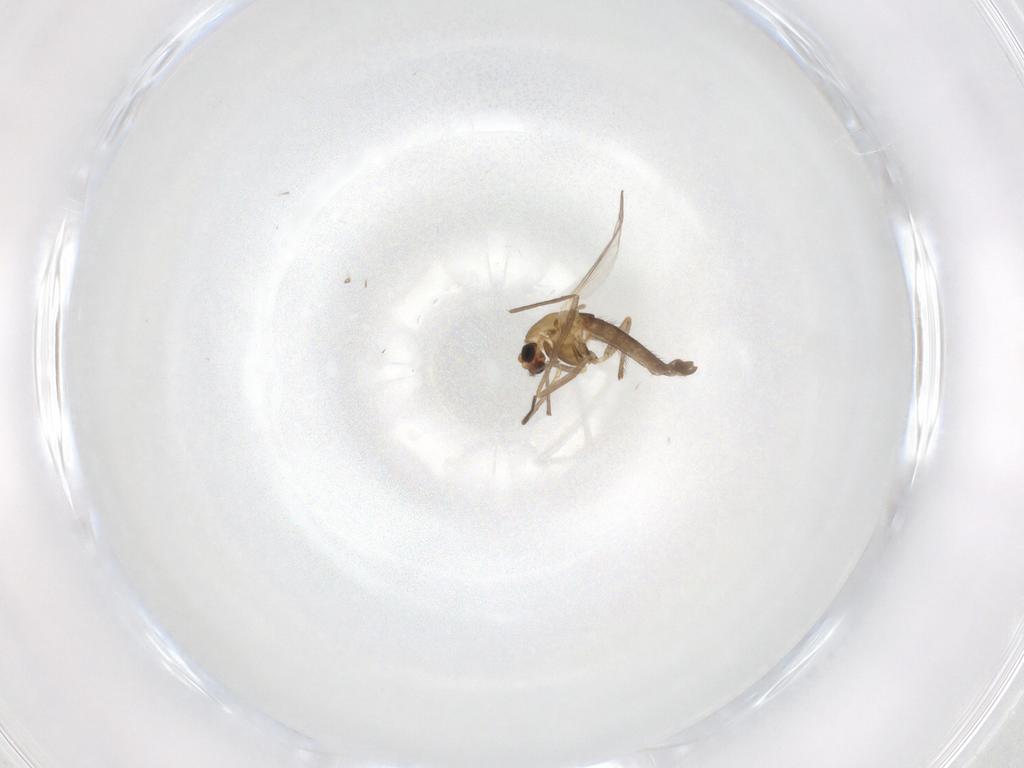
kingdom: Animalia
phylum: Arthropoda
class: Insecta
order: Diptera
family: Chironomidae
